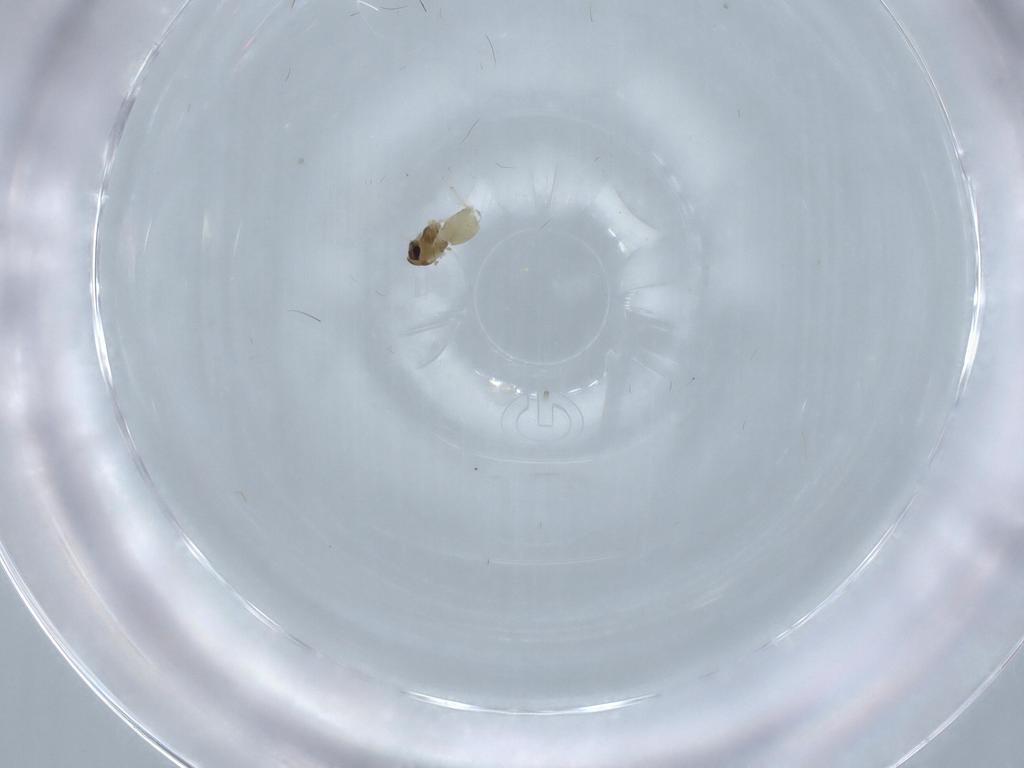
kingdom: Animalia
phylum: Arthropoda
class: Insecta
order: Diptera
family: Chironomidae
